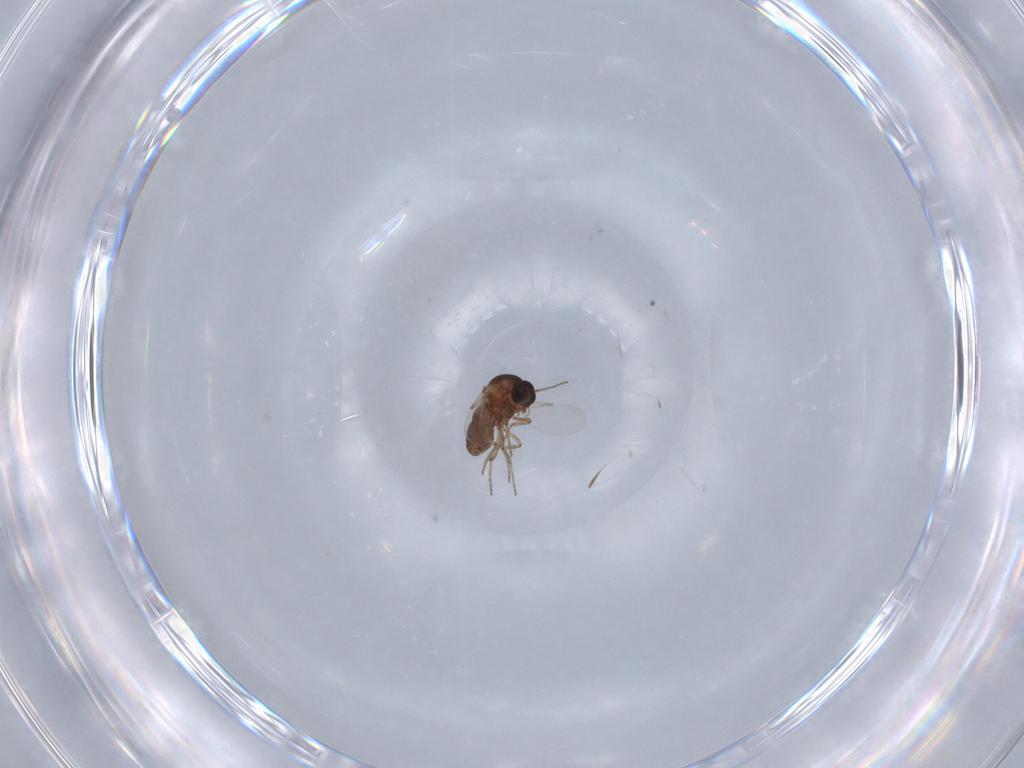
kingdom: Animalia
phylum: Arthropoda
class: Insecta
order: Diptera
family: Ceratopogonidae
